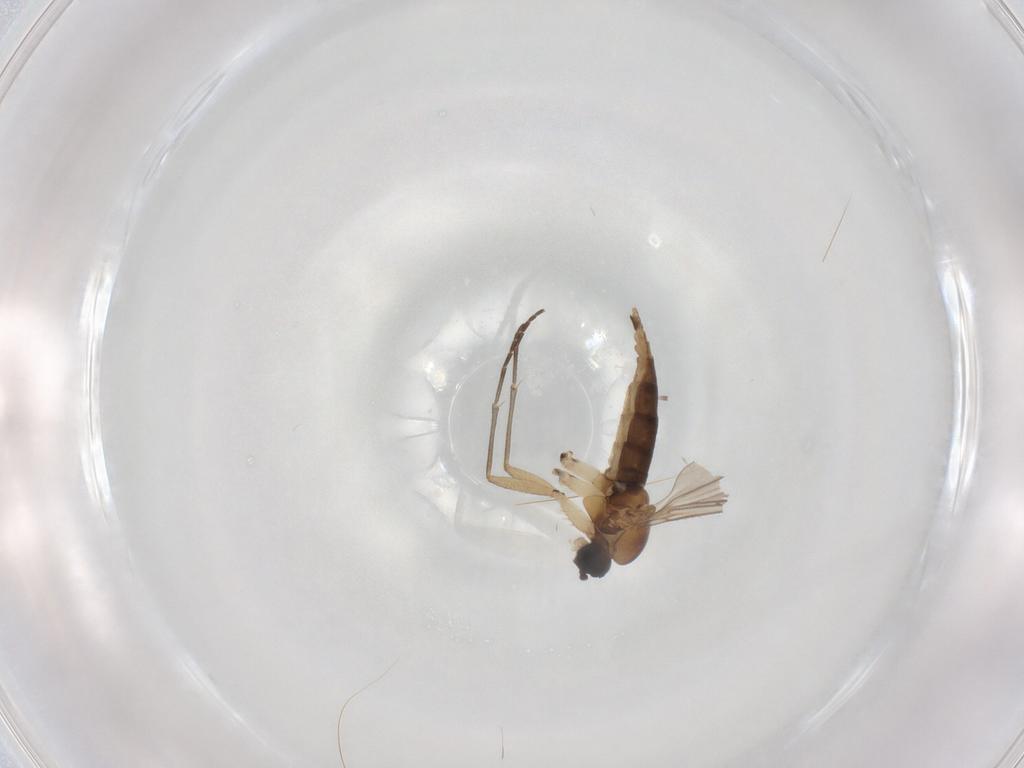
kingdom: Animalia
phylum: Arthropoda
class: Insecta
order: Diptera
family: Sciaridae
